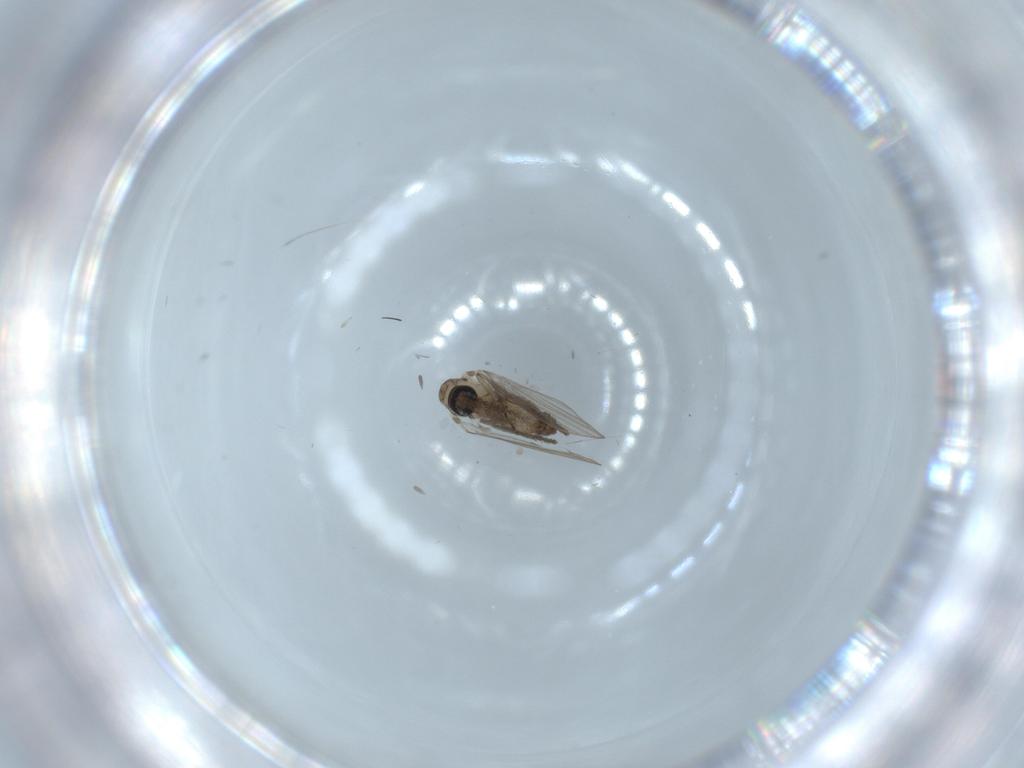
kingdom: Animalia
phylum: Arthropoda
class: Insecta
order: Diptera
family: Psychodidae
